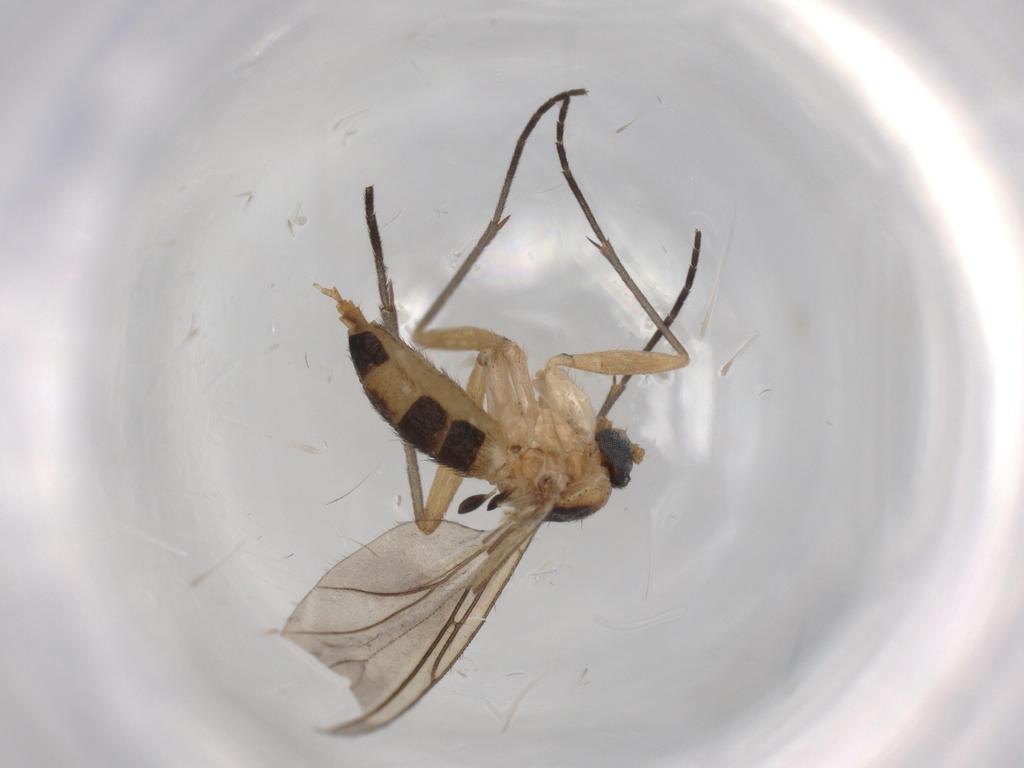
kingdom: Animalia
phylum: Arthropoda
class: Insecta
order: Diptera
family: Sciaridae
